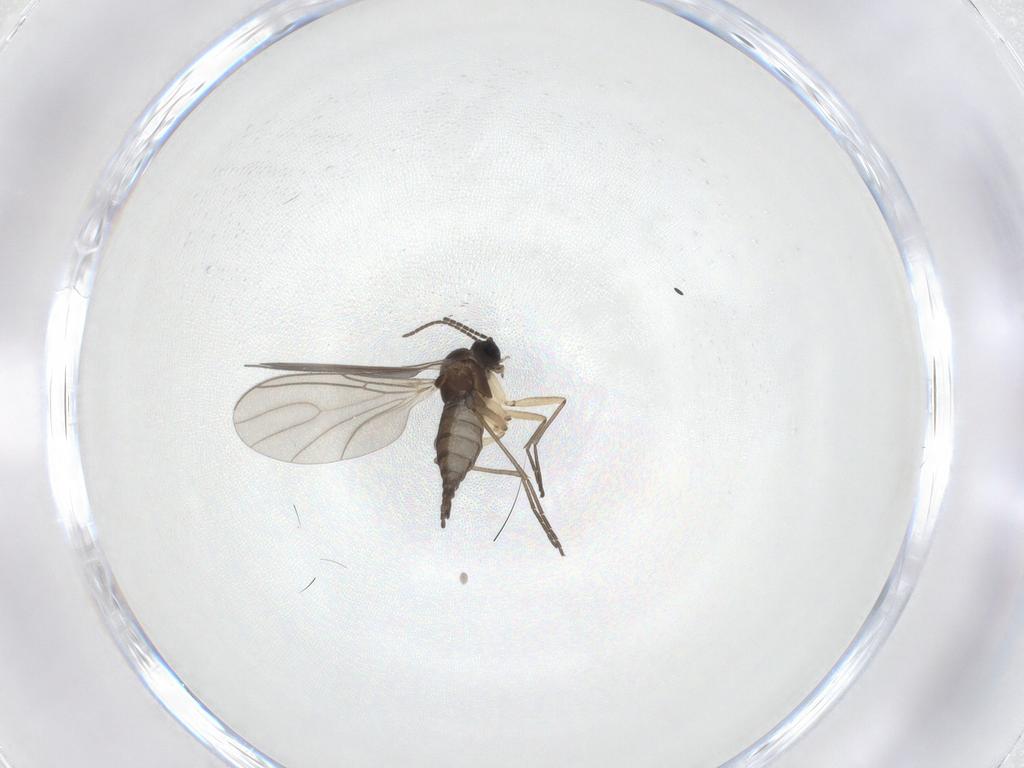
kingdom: Animalia
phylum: Arthropoda
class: Insecta
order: Diptera
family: Sciaridae
